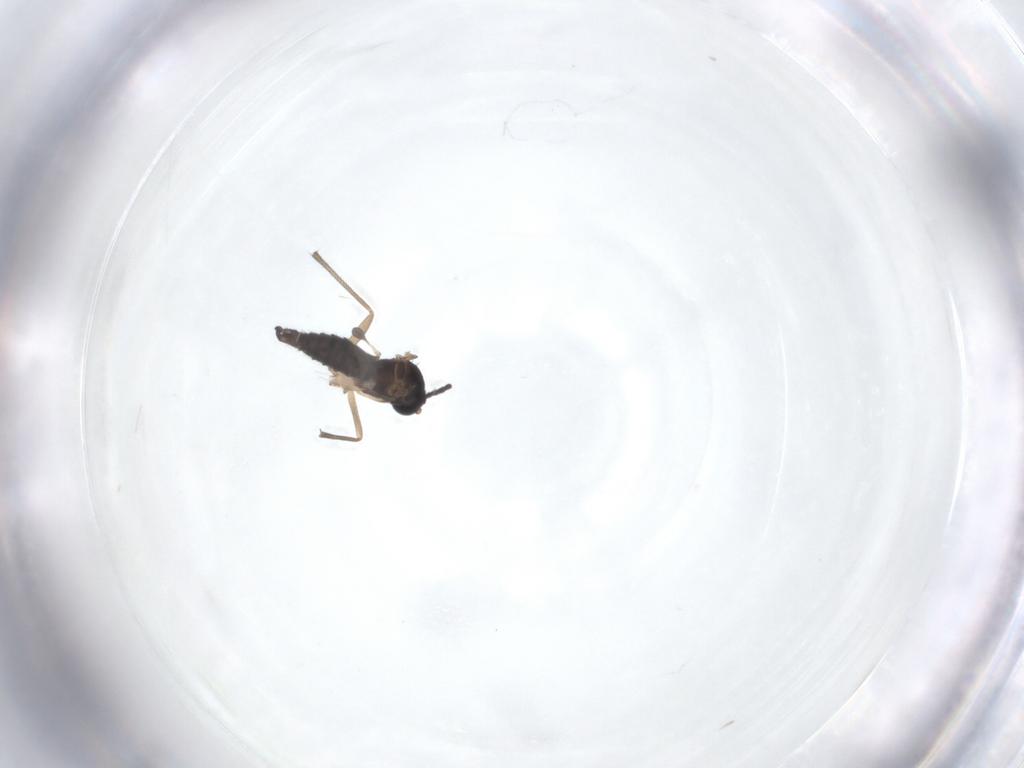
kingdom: Animalia
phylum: Arthropoda
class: Insecta
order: Diptera
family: Sciaridae
